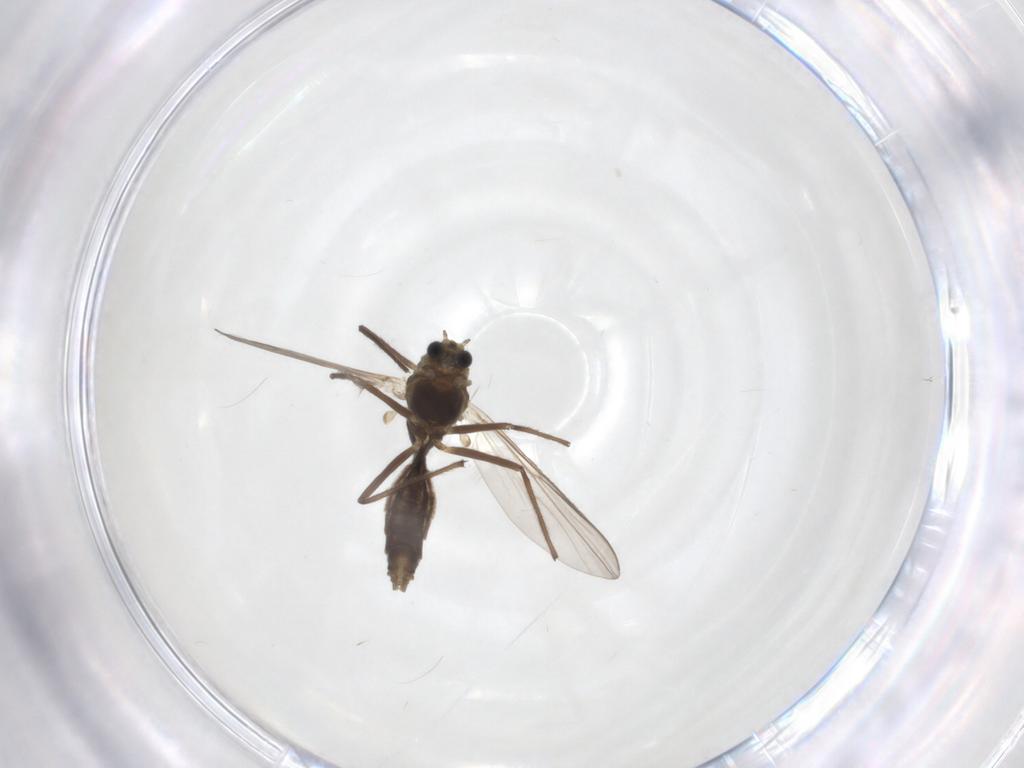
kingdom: Animalia
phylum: Arthropoda
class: Insecta
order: Diptera
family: Chironomidae
